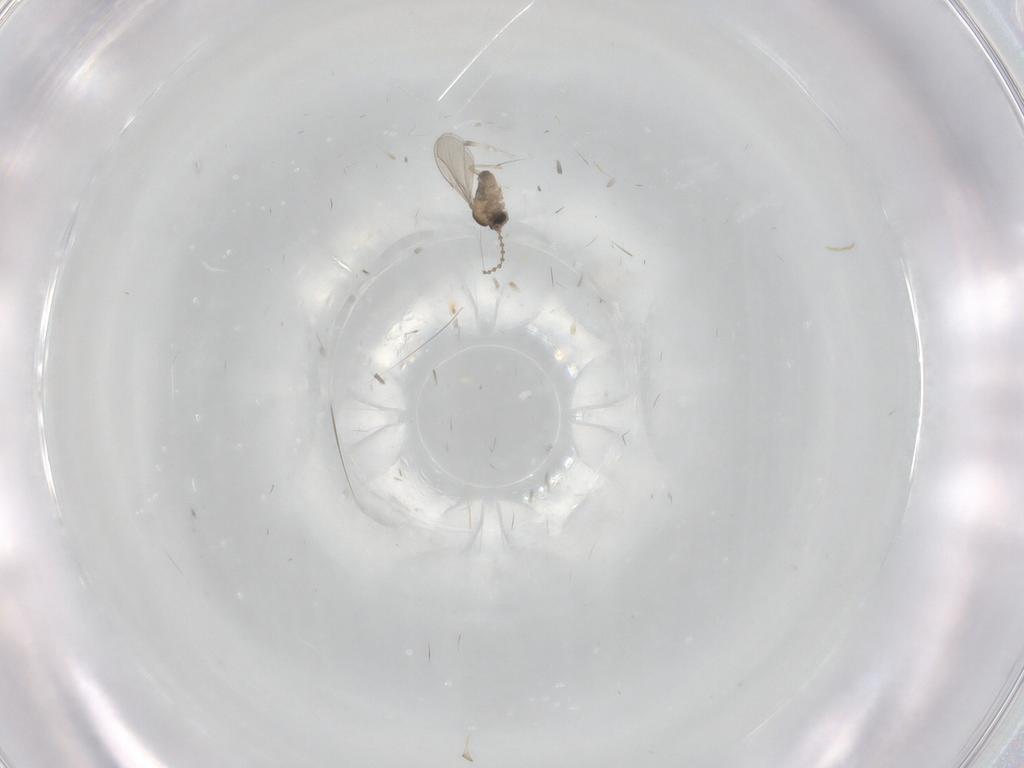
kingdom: Animalia
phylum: Arthropoda
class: Insecta
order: Diptera
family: Cecidomyiidae
